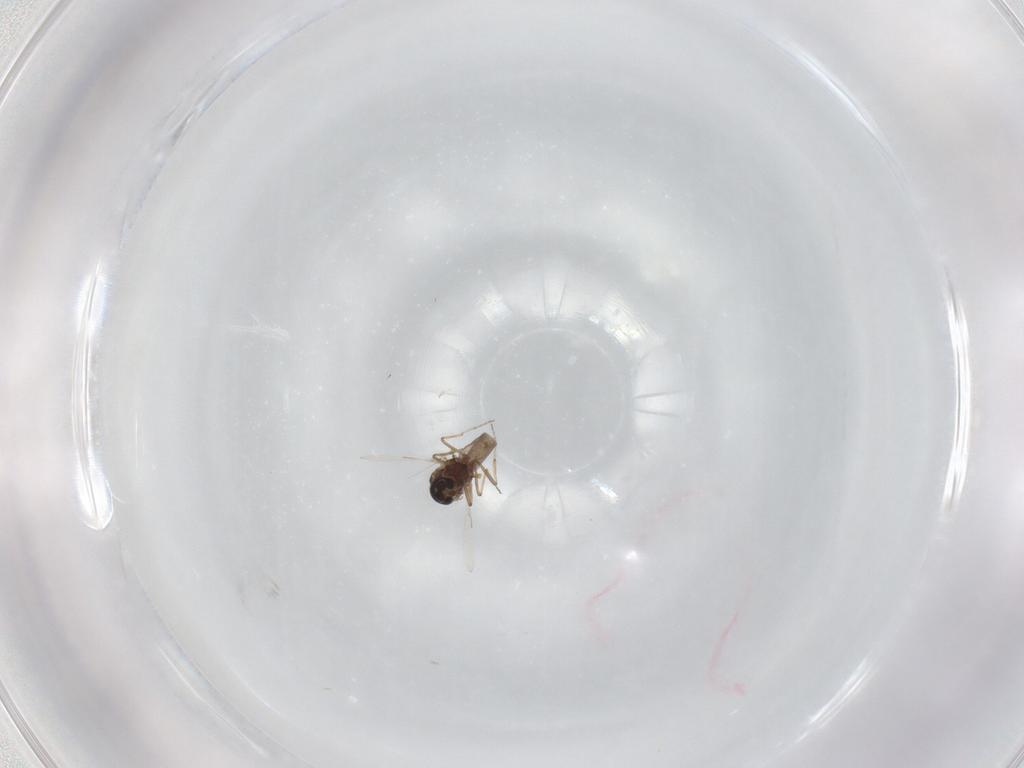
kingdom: Animalia
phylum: Arthropoda
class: Insecta
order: Diptera
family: Ceratopogonidae
